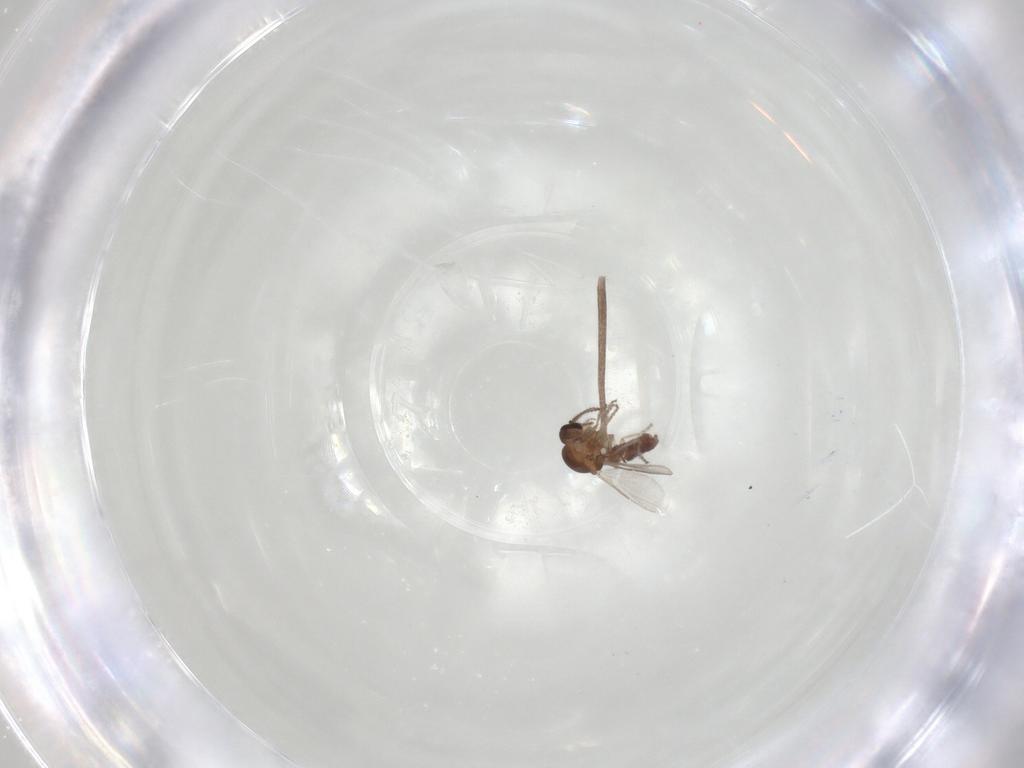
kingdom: Animalia
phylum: Arthropoda
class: Insecta
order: Diptera
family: Ceratopogonidae
